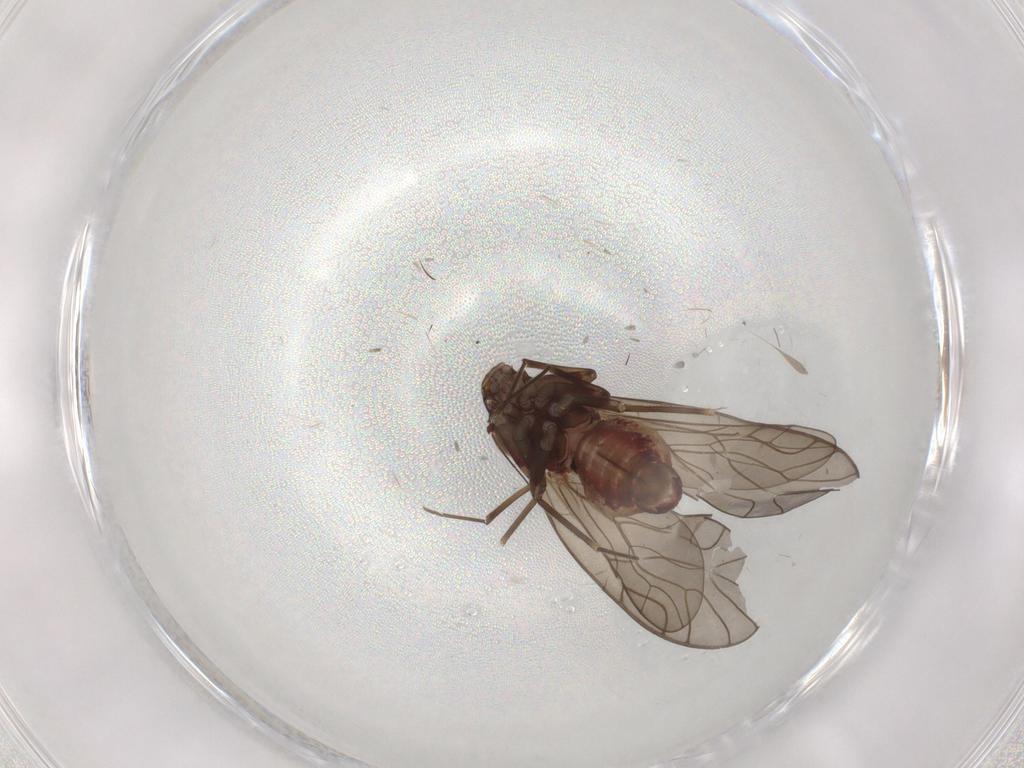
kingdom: Animalia
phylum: Arthropoda
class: Insecta
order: Psocodea
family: Philotarsidae
